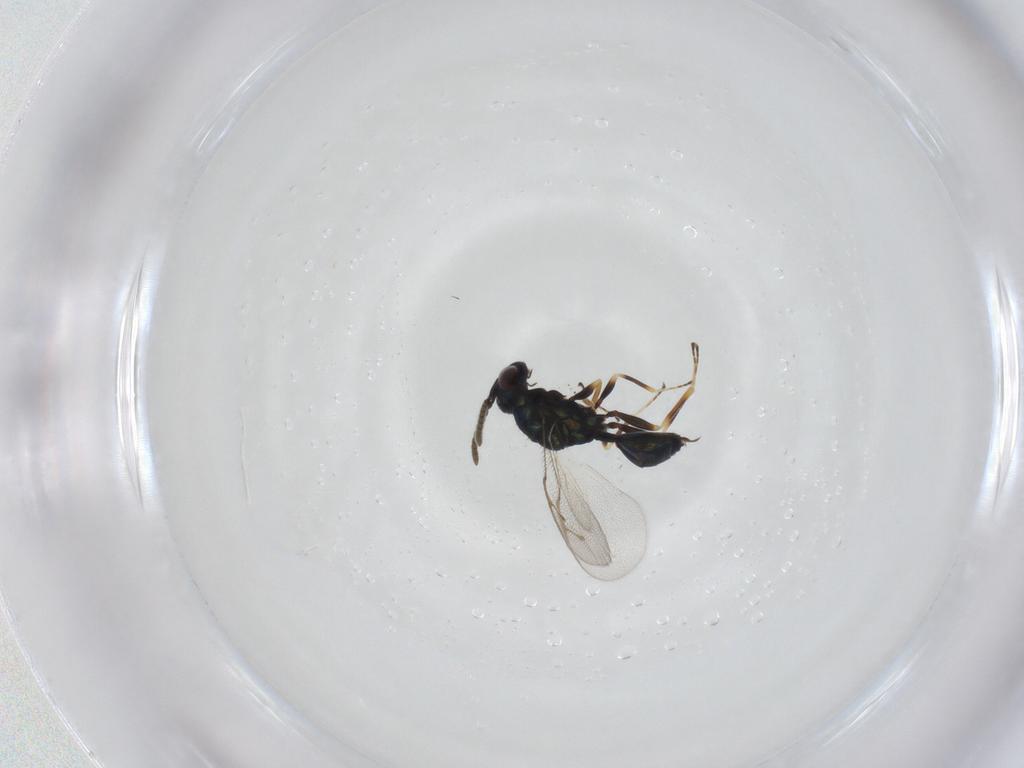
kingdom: Animalia
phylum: Arthropoda
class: Insecta
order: Hymenoptera
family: Pteromalidae
